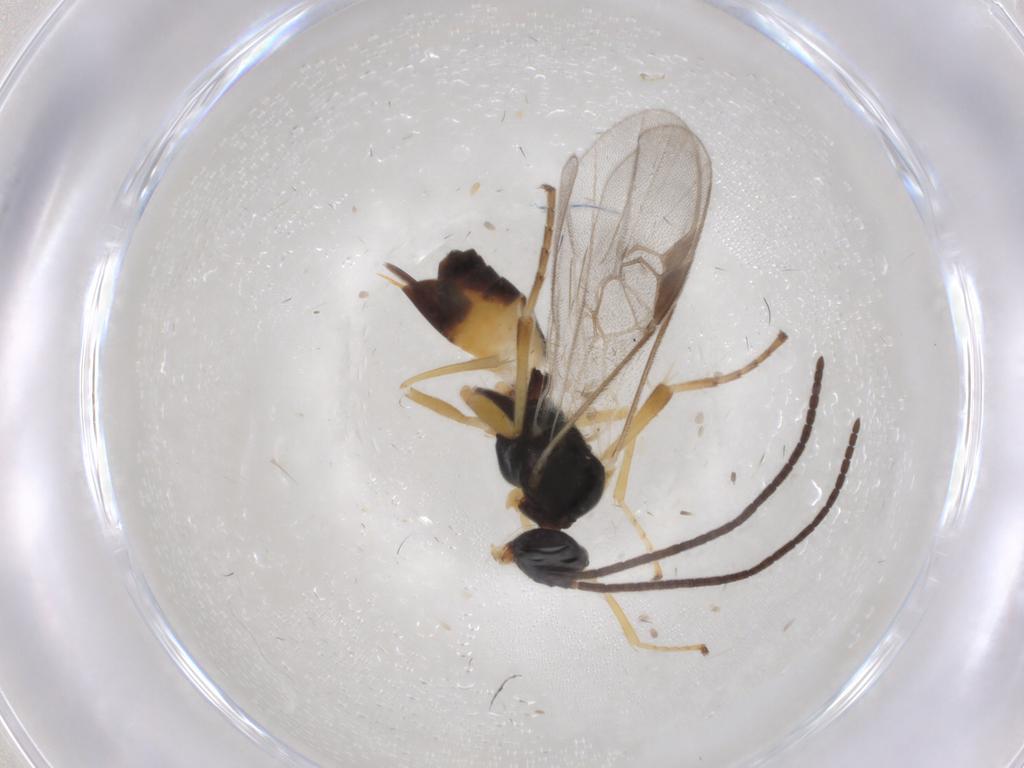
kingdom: Animalia
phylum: Arthropoda
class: Insecta
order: Hymenoptera
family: Braconidae
